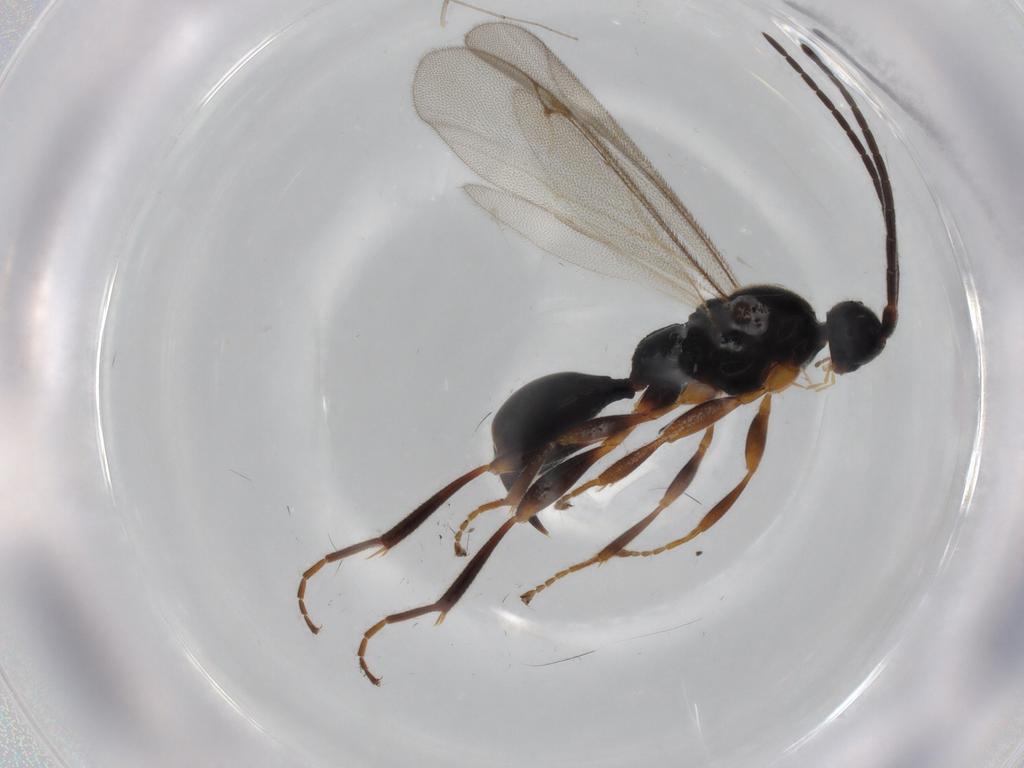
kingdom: Animalia
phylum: Arthropoda
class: Insecta
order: Hymenoptera
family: Proctotrupidae
